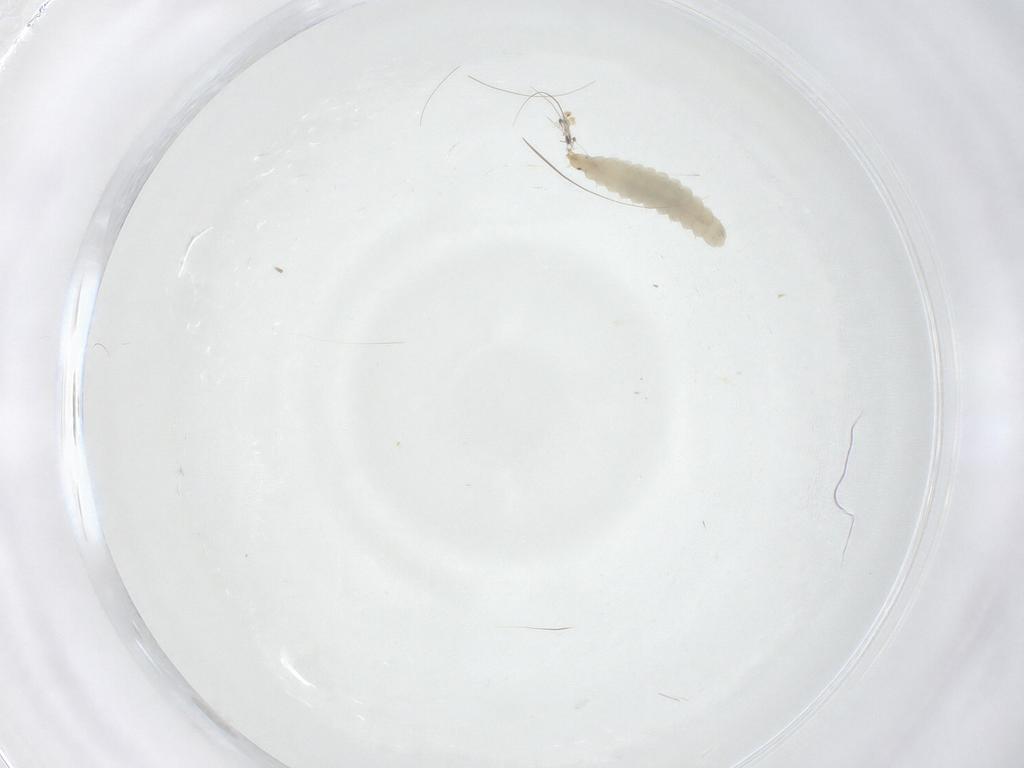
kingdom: Animalia
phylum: Arthropoda
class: Insecta
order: Diptera
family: Stratiomyidae
